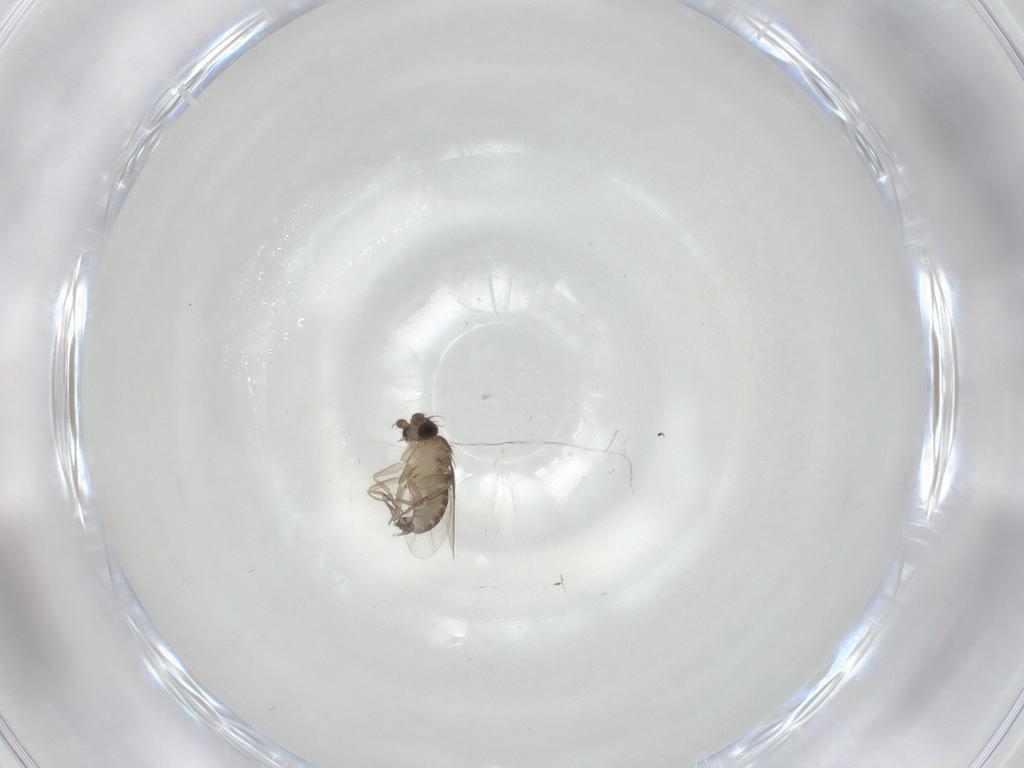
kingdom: Animalia
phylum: Arthropoda
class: Insecta
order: Diptera
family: Phoridae
